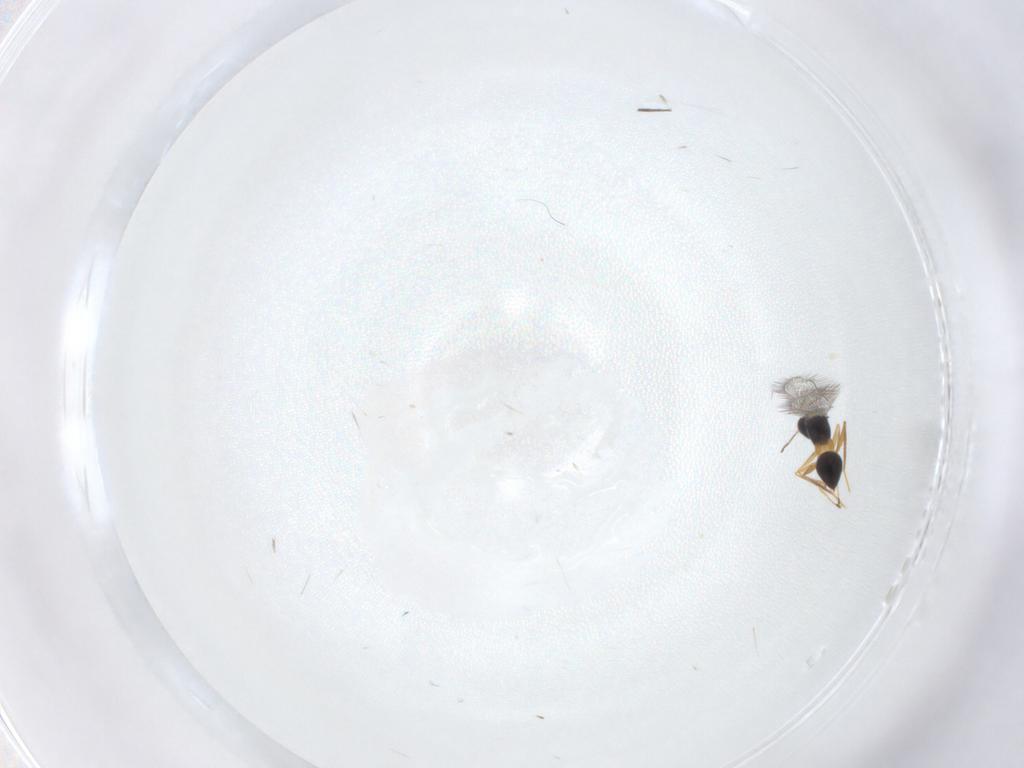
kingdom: Animalia
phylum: Arthropoda
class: Insecta
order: Hymenoptera
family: Mymaridae
